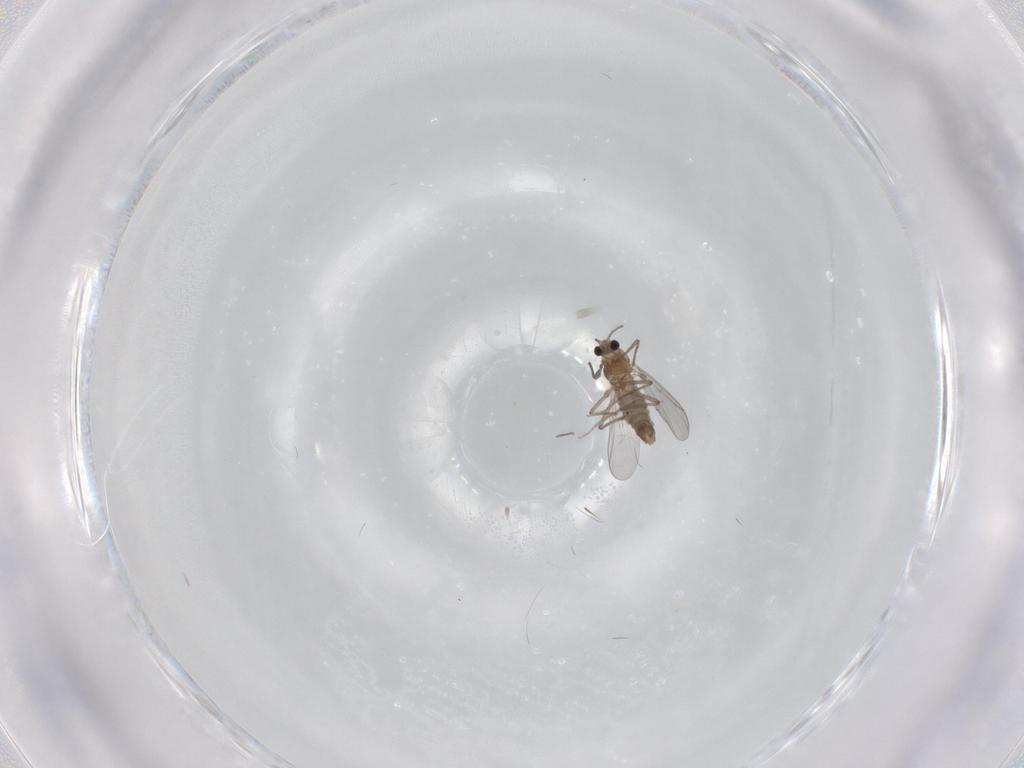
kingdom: Animalia
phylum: Arthropoda
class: Insecta
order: Diptera
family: Chironomidae
